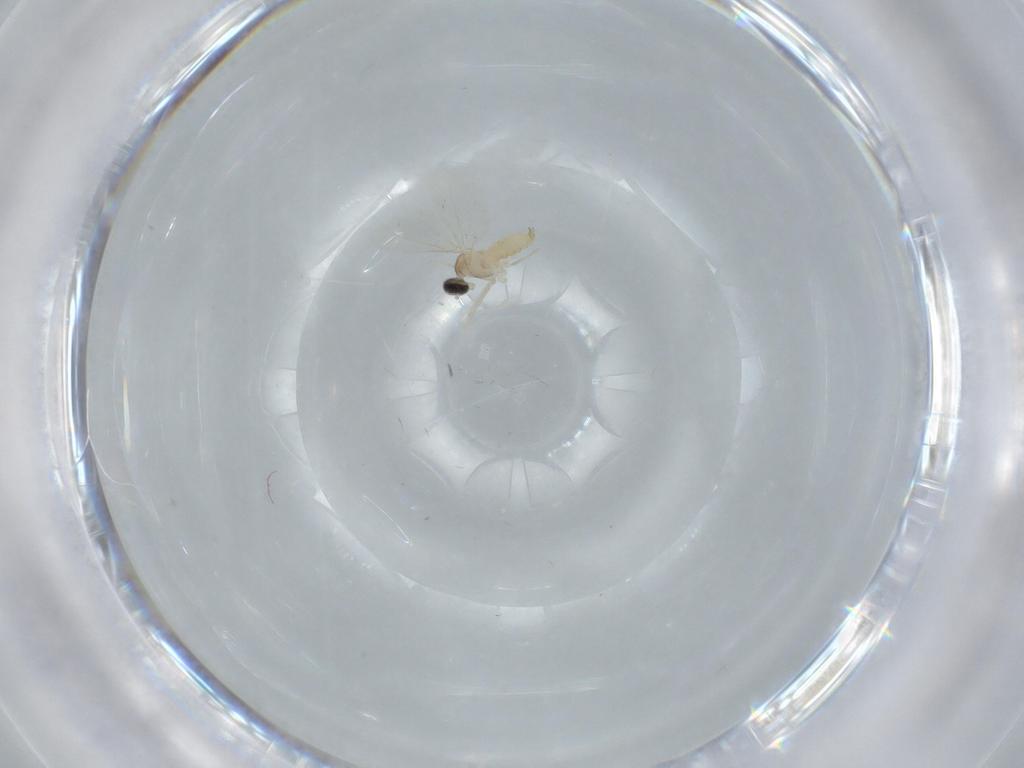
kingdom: Animalia
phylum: Arthropoda
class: Insecta
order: Diptera
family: Cecidomyiidae
